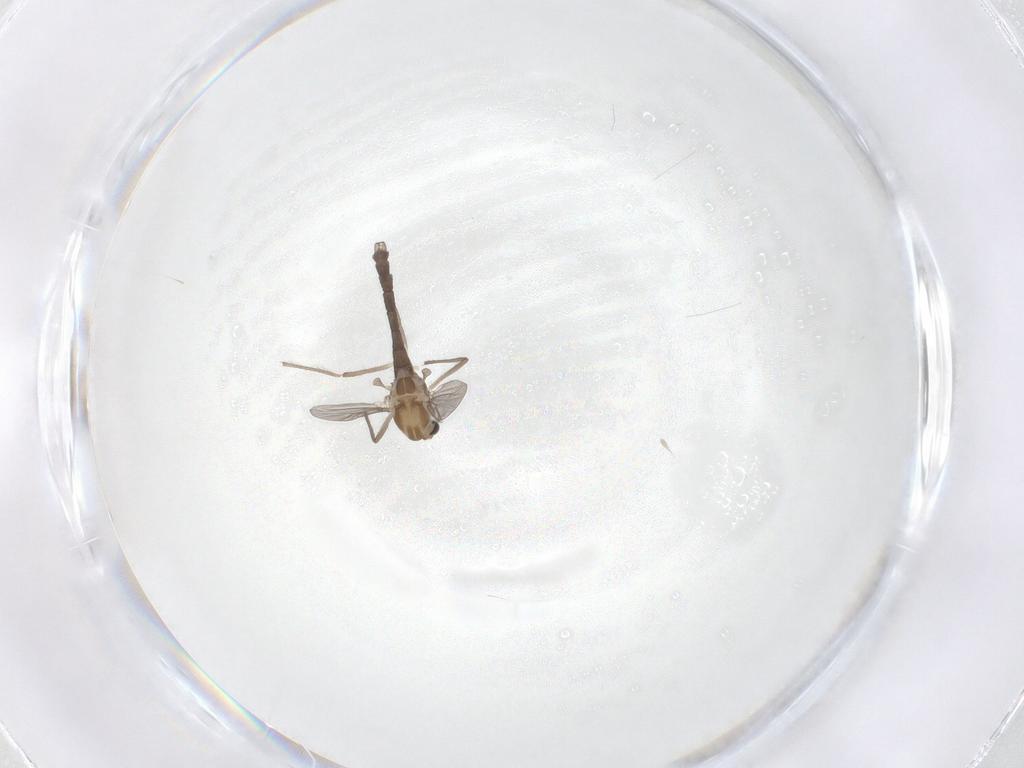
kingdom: Animalia
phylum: Arthropoda
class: Insecta
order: Diptera
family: Chironomidae
